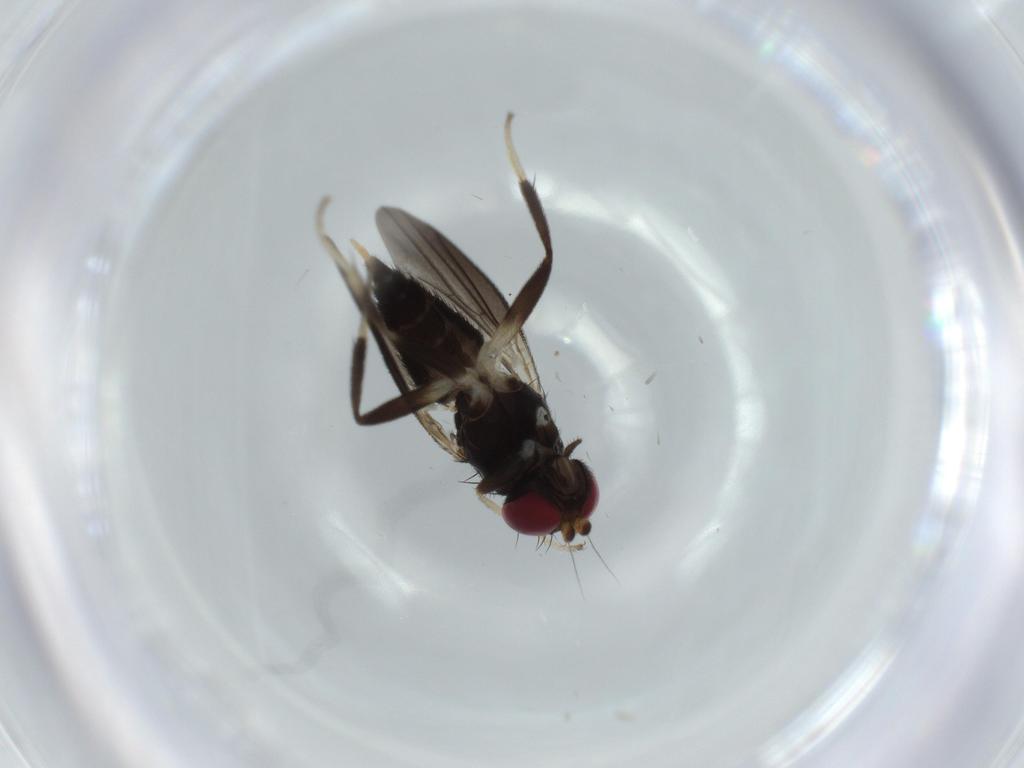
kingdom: Animalia
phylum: Arthropoda
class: Insecta
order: Diptera
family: Clusiidae
